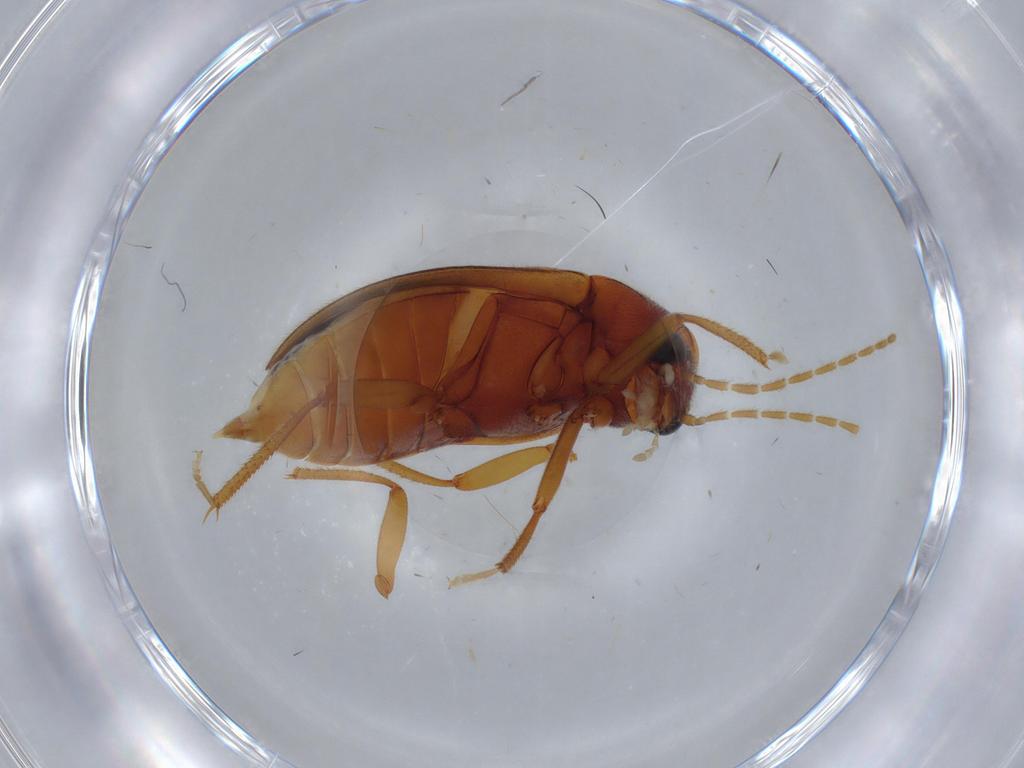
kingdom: Animalia
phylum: Arthropoda
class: Insecta
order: Coleoptera
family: Ptilodactylidae
